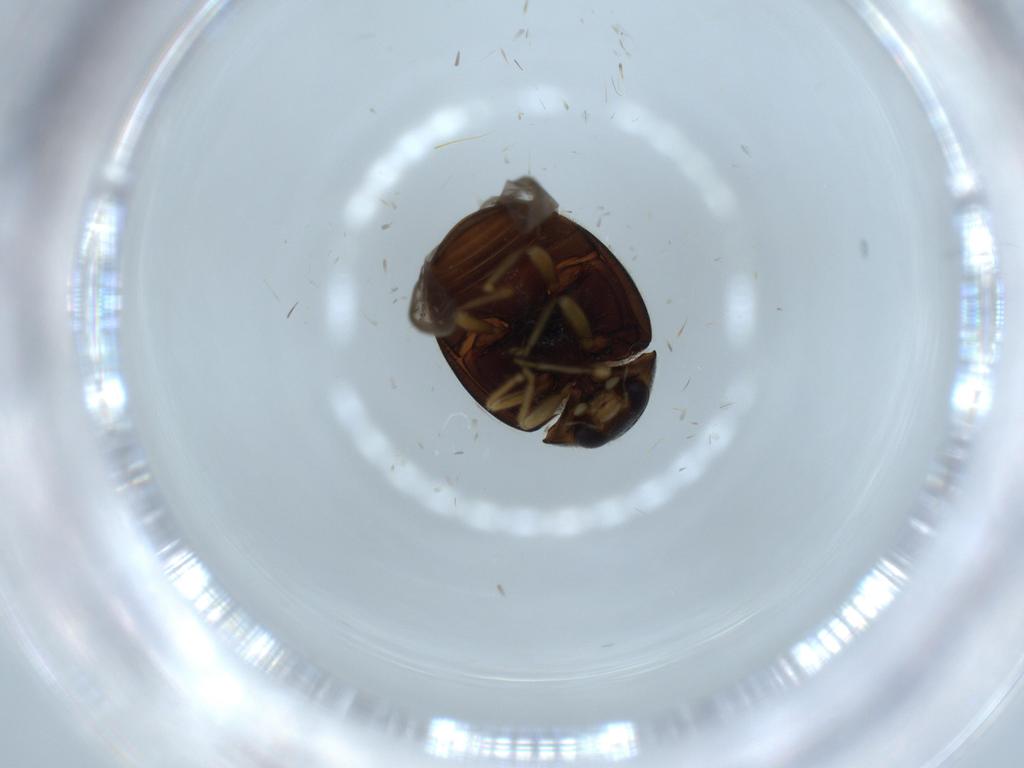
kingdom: Animalia
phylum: Arthropoda
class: Insecta
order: Coleoptera
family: Coccinellidae
